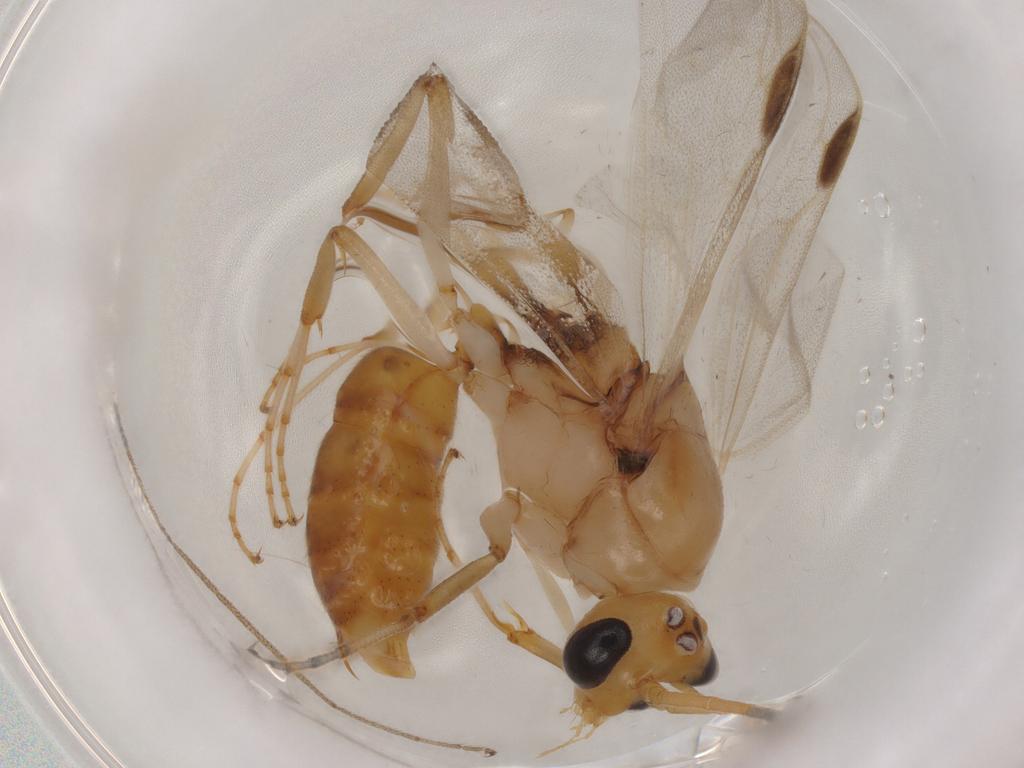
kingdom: Animalia
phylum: Arthropoda
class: Insecta
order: Hymenoptera
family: Formicidae
